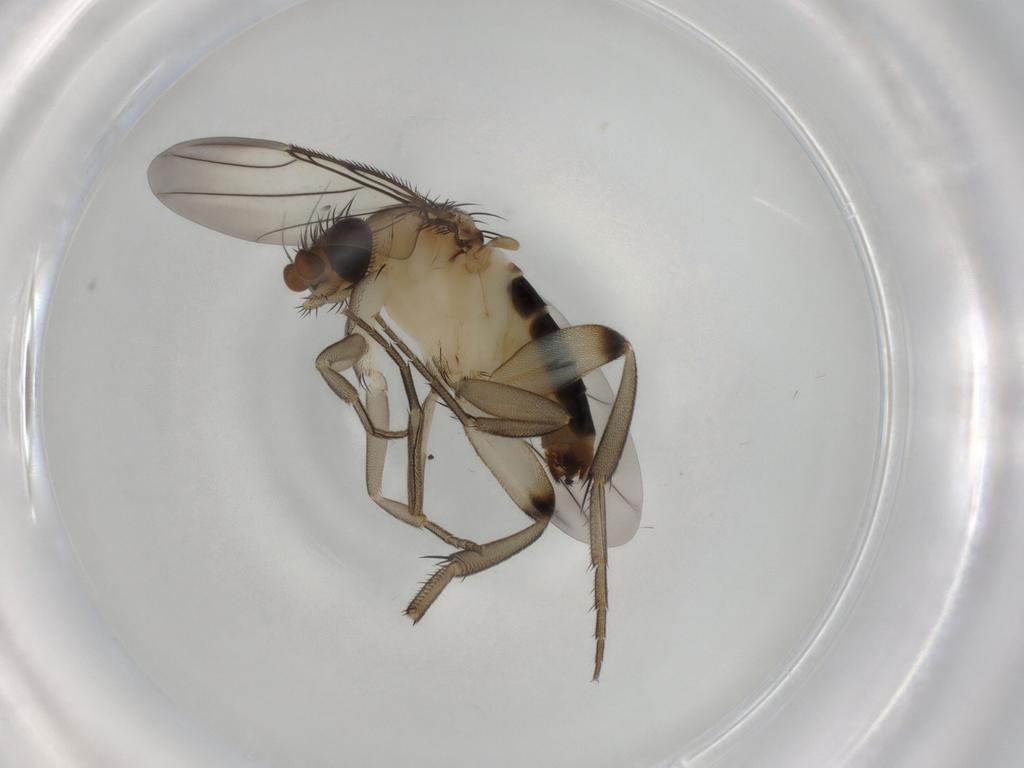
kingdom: Animalia
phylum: Arthropoda
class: Insecta
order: Diptera
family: Phoridae
